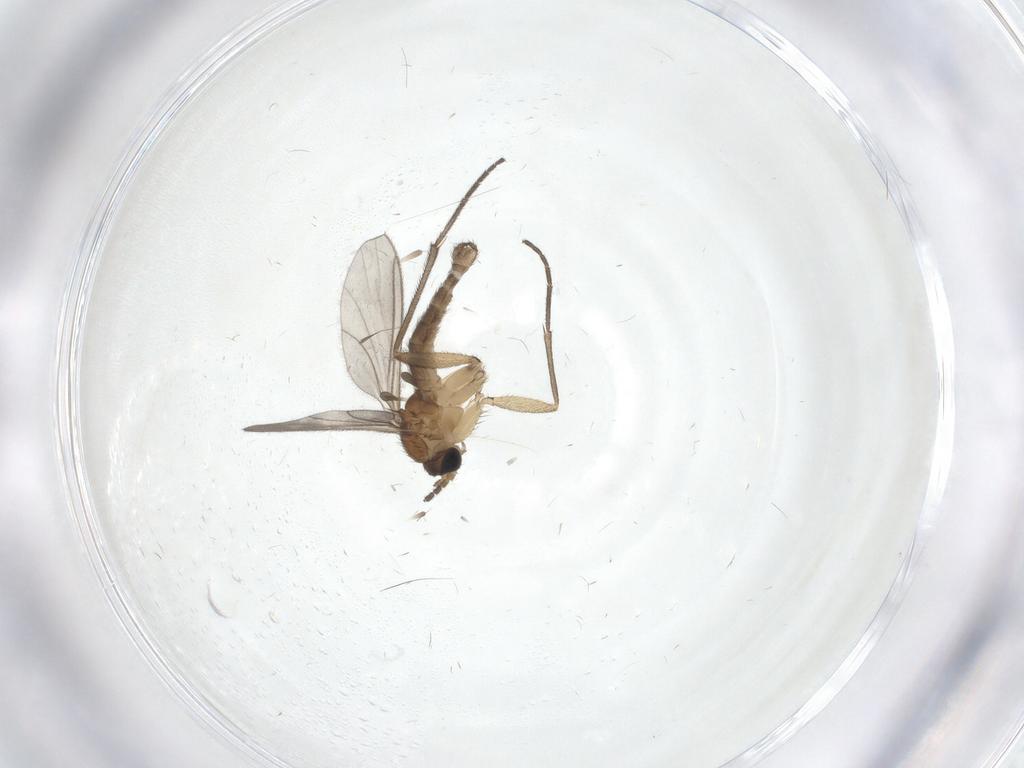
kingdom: Animalia
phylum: Arthropoda
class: Insecta
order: Diptera
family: Sciaridae
